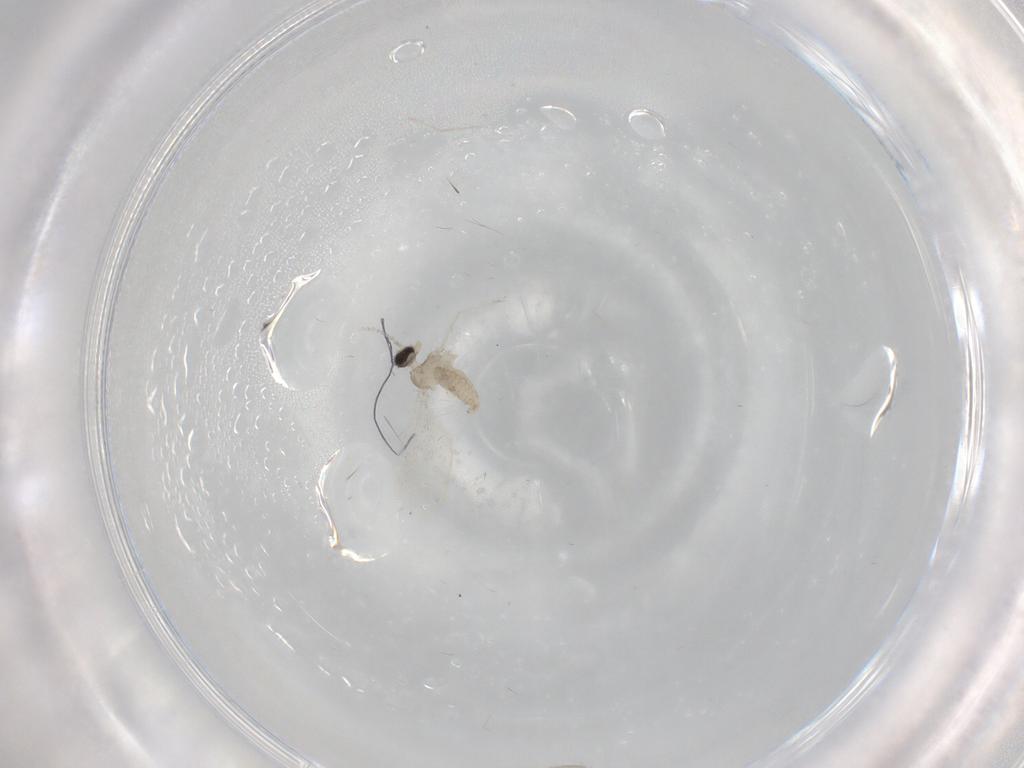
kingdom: Animalia
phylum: Arthropoda
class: Insecta
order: Diptera
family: Cecidomyiidae
